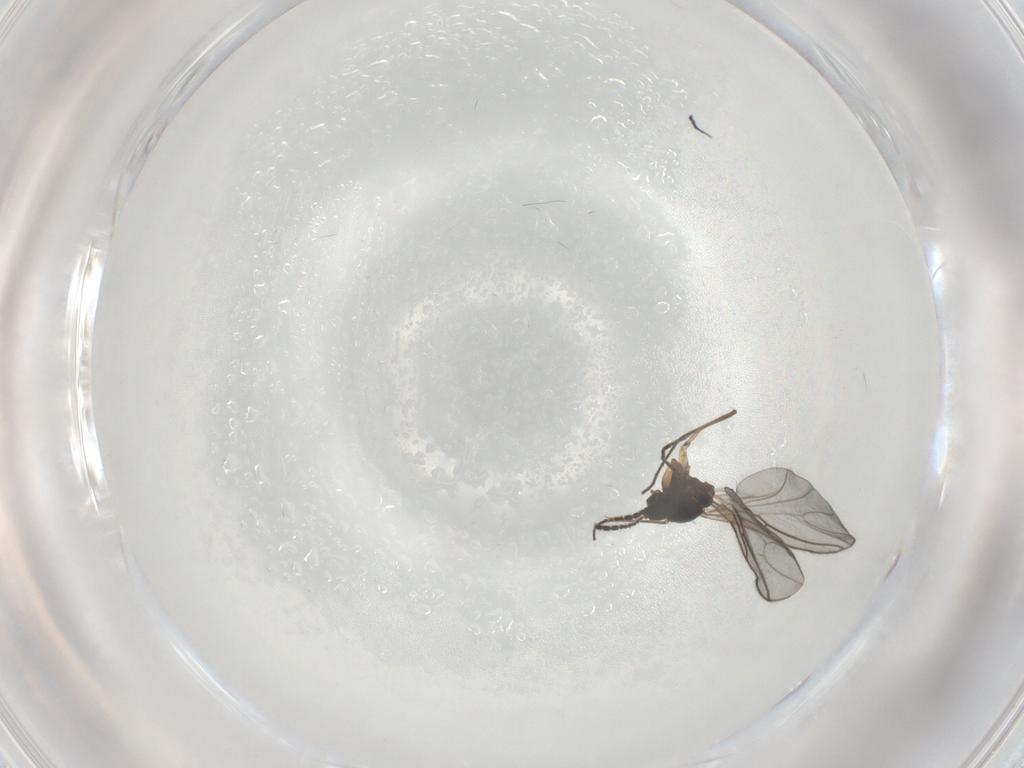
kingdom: Animalia
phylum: Arthropoda
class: Insecta
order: Diptera
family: Sciaridae
